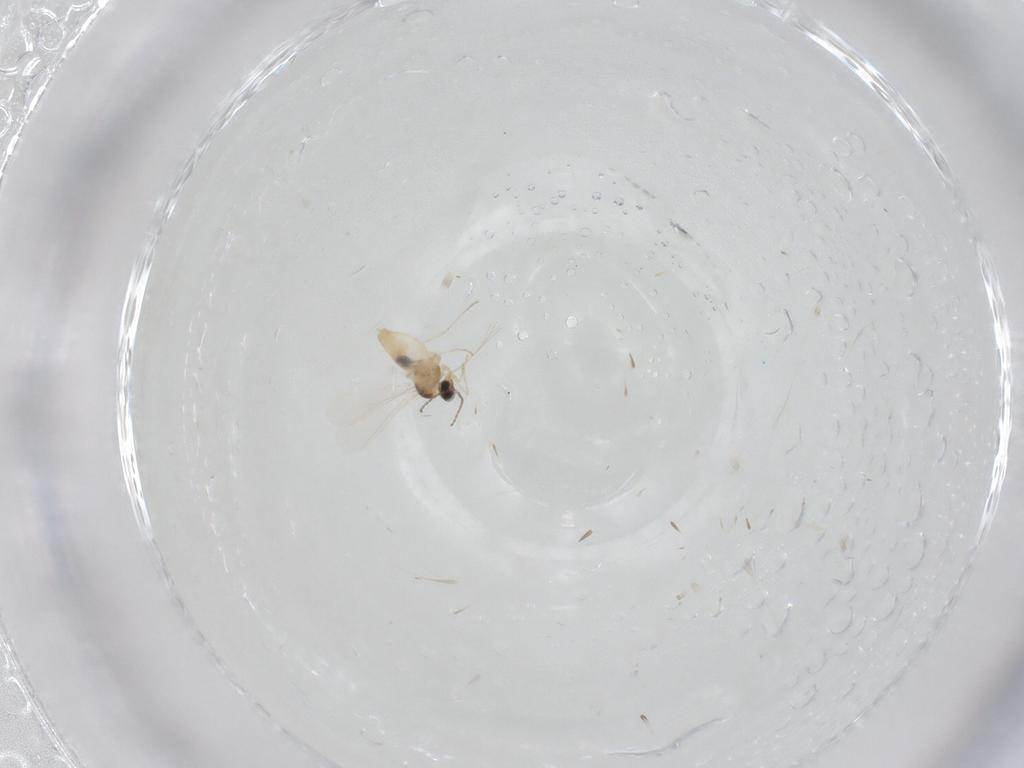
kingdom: Animalia
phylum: Arthropoda
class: Insecta
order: Diptera
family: Cecidomyiidae
